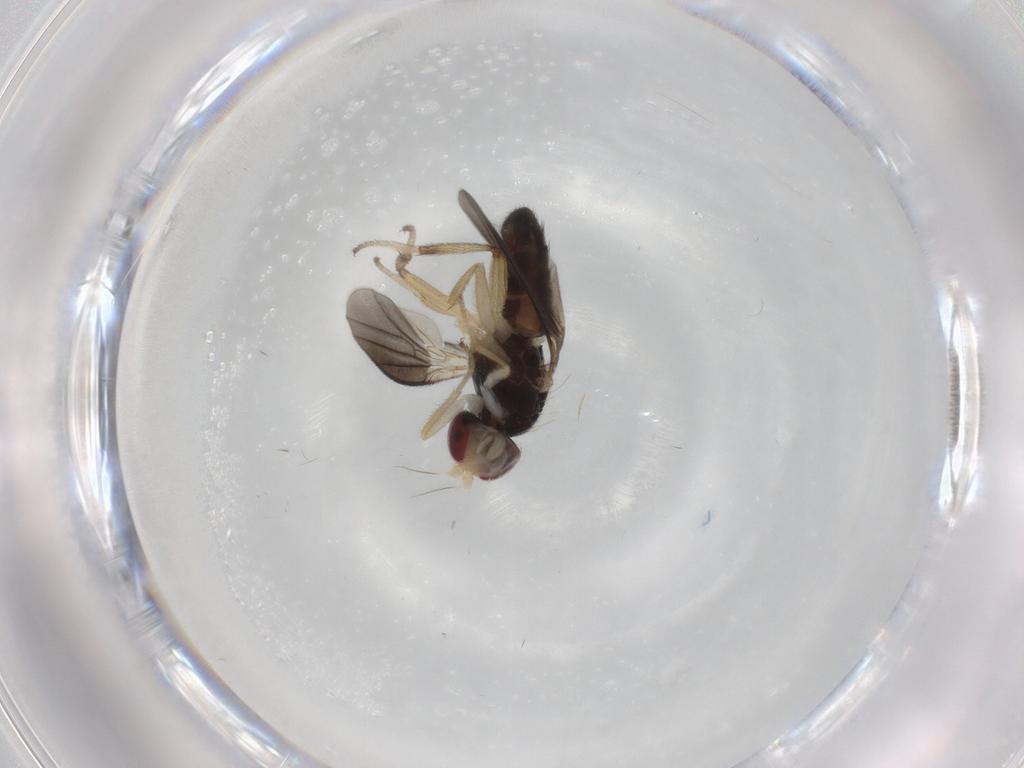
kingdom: Animalia
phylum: Arthropoda
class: Insecta
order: Diptera
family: Clusiidae
